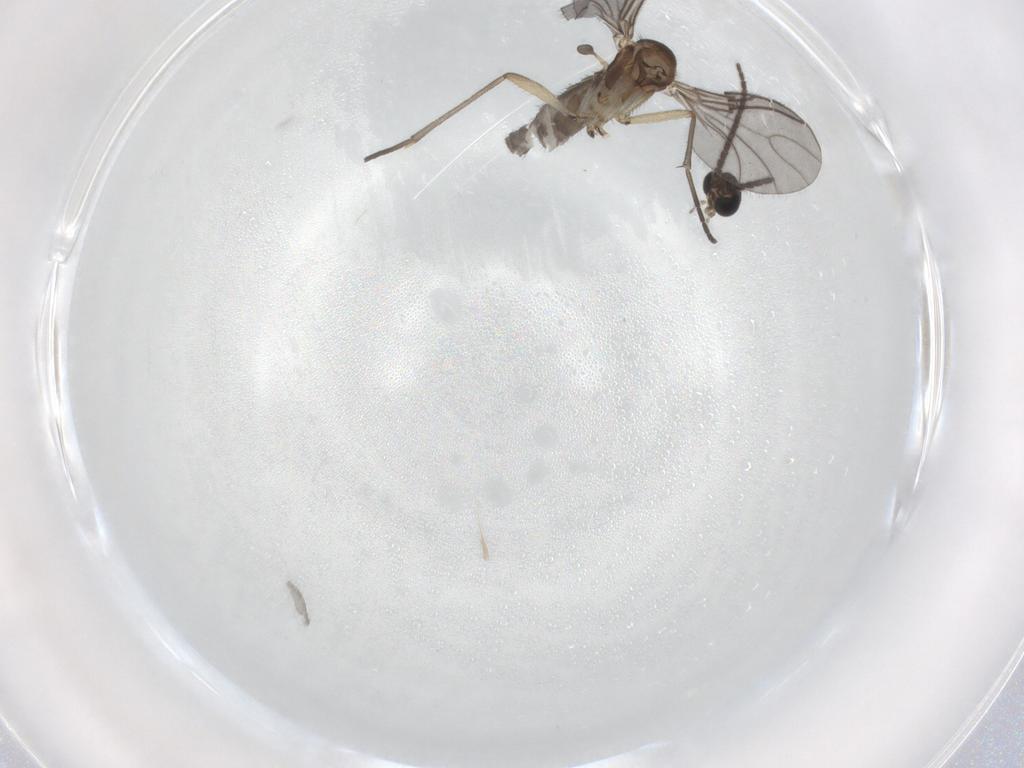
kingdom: Animalia
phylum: Arthropoda
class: Insecta
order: Diptera
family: Sciaridae
